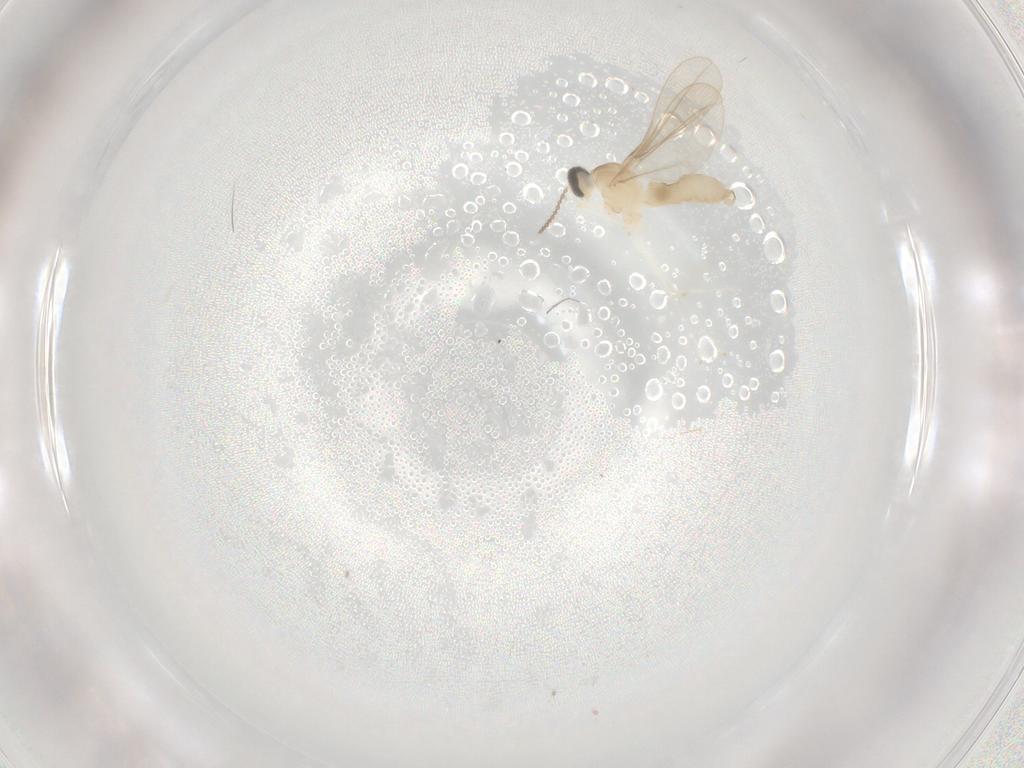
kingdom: Animalia
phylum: Arthropoda
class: Insecta
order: Diptera
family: Cecidomyiidae
